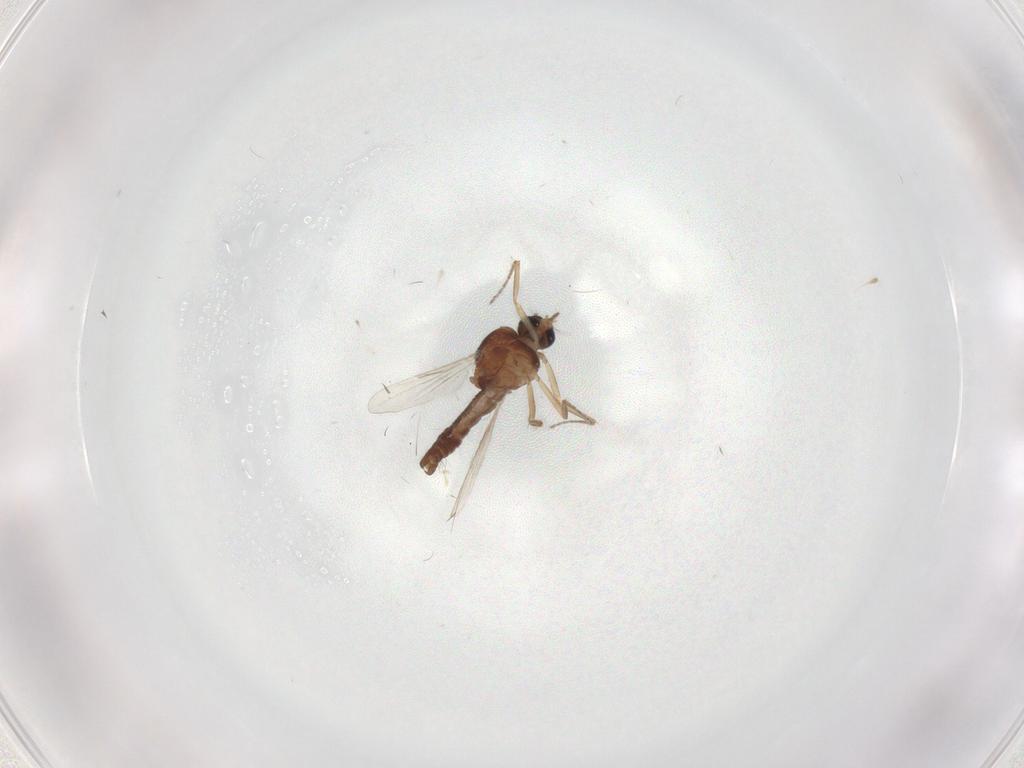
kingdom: Animalia
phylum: Arthropoda
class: Insecta
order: Diptera
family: Ceratopogonidae
